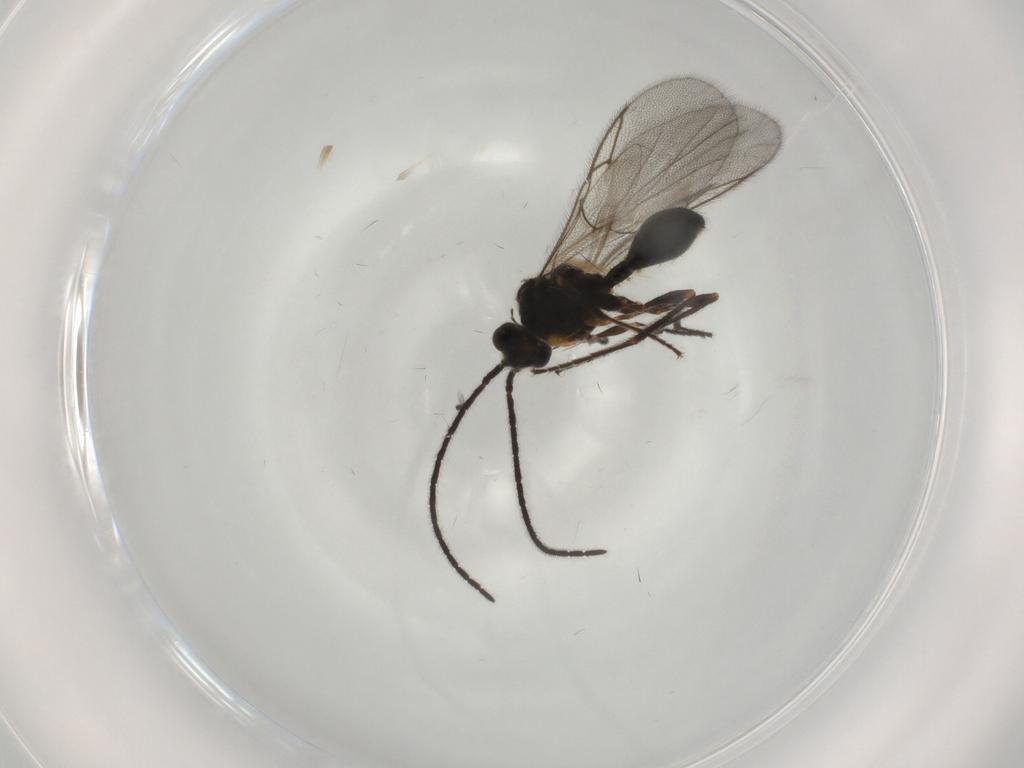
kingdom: Animalia
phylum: Arthropoda
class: Insecta
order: Hymenoptera
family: Diapriidae
